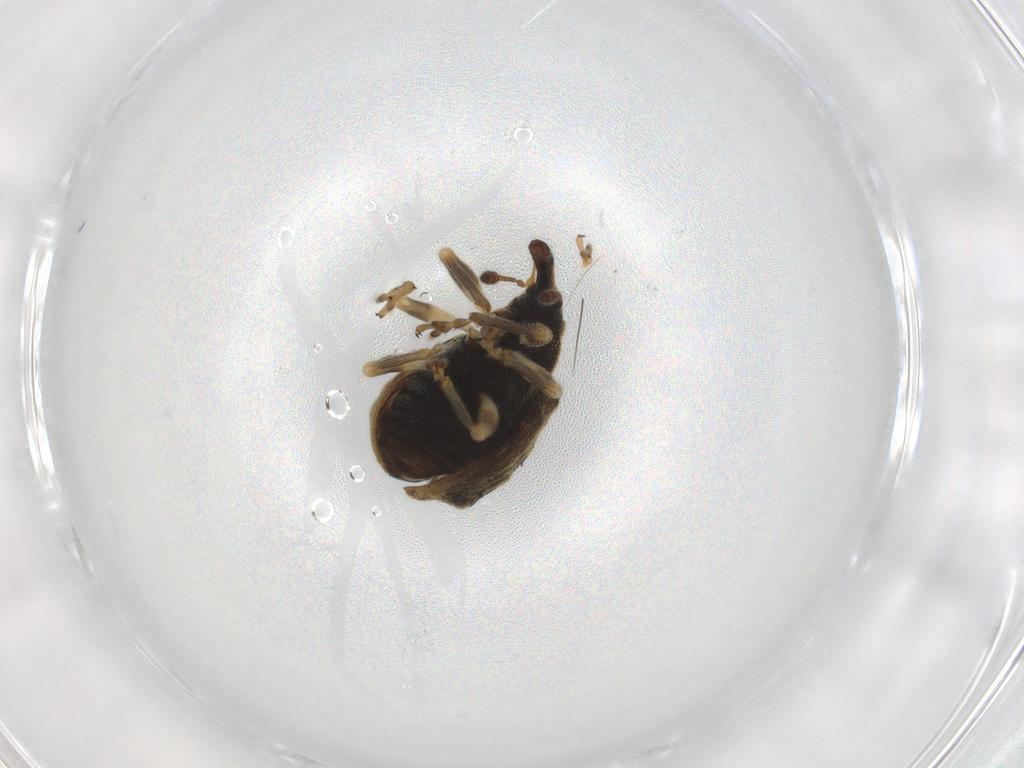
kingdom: Animalia
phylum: Arthropoda
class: Insecta
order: Coleoptera
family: Curculionidae
